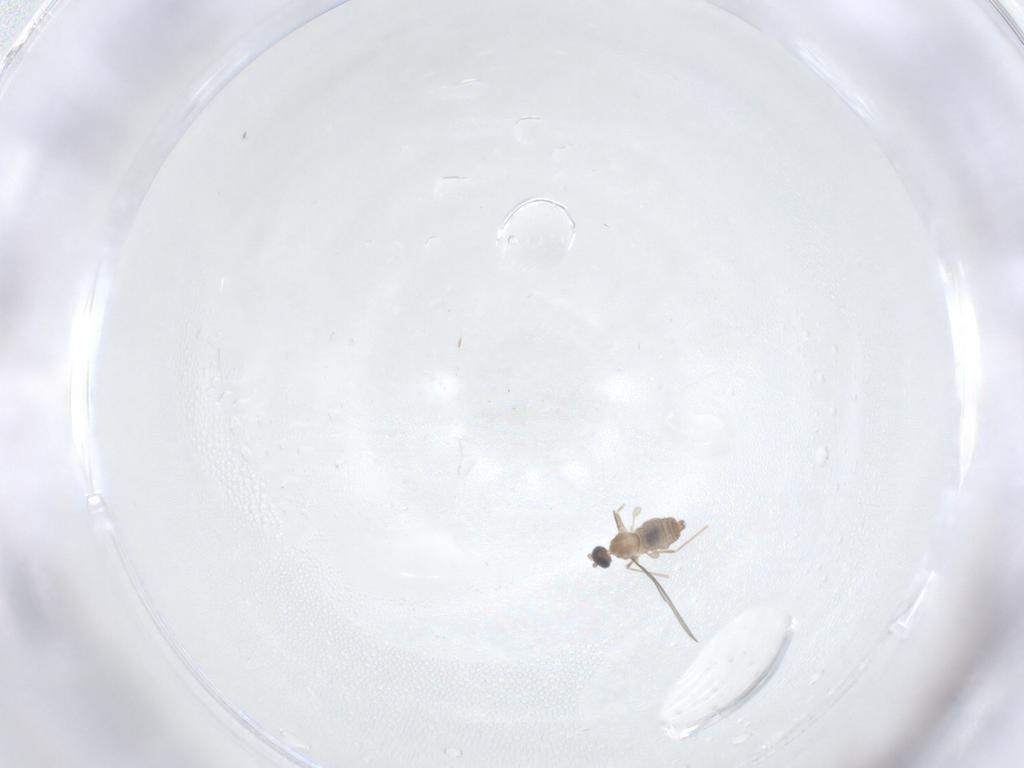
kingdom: Animalia
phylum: Arthropoda
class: Insecta
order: Diptera
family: Cecidomyiidae
